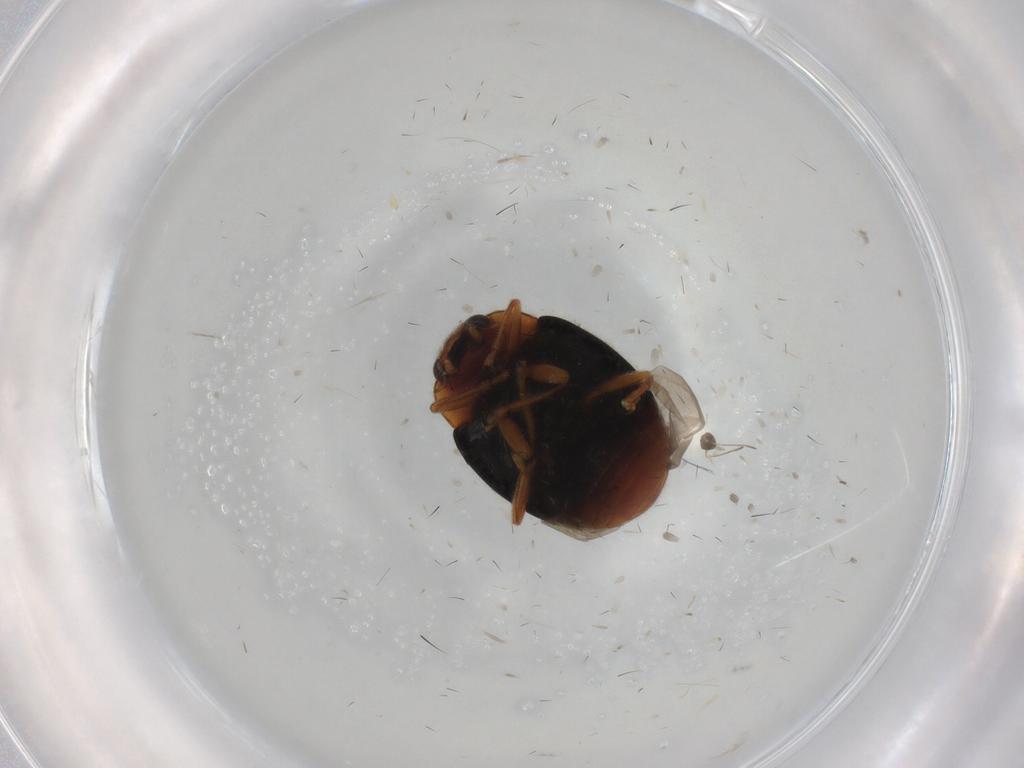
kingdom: Animalia
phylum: Arthropoda
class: Insecta
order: Coleoptera
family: Coccinellidae
